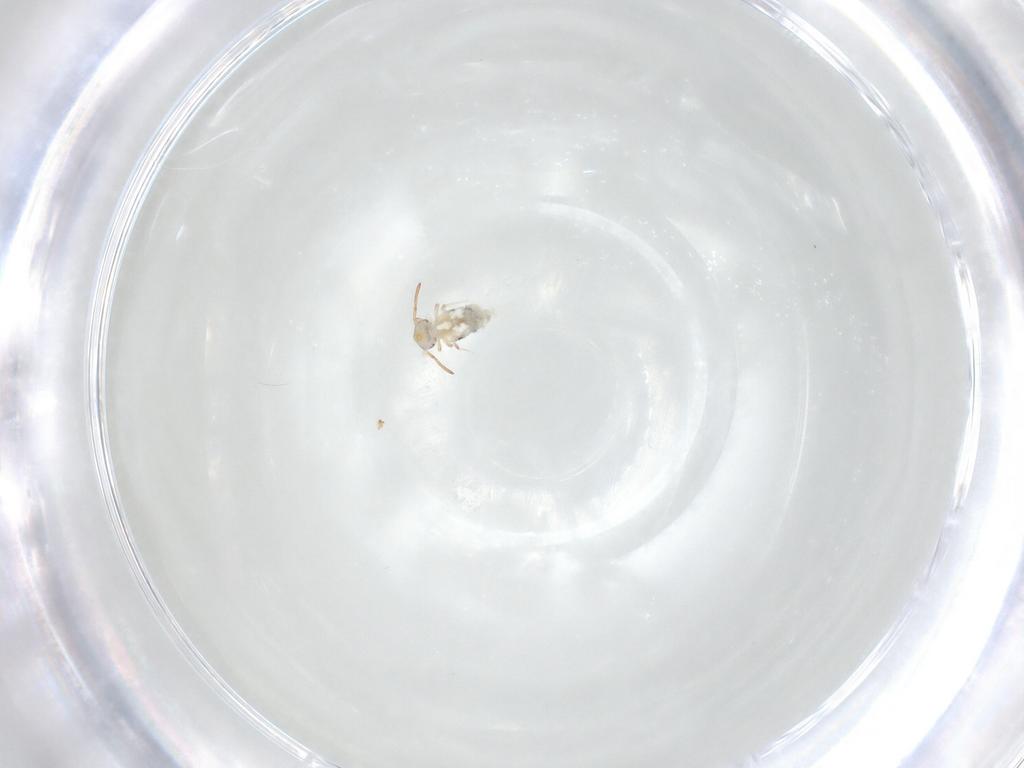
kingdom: Animalia
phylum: Arthropoda
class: Collembola
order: Symphypleona
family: Bourletiellidae
